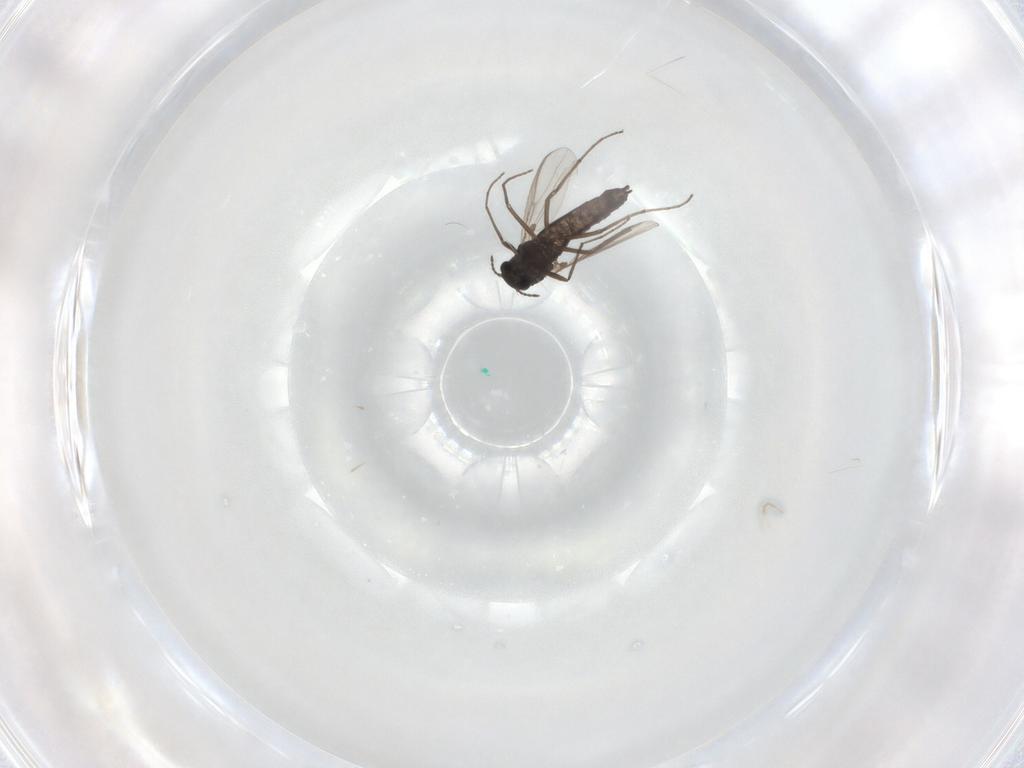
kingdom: Animalia
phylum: Arthropoda
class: Insecta
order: Diptera
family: Chironomidae
